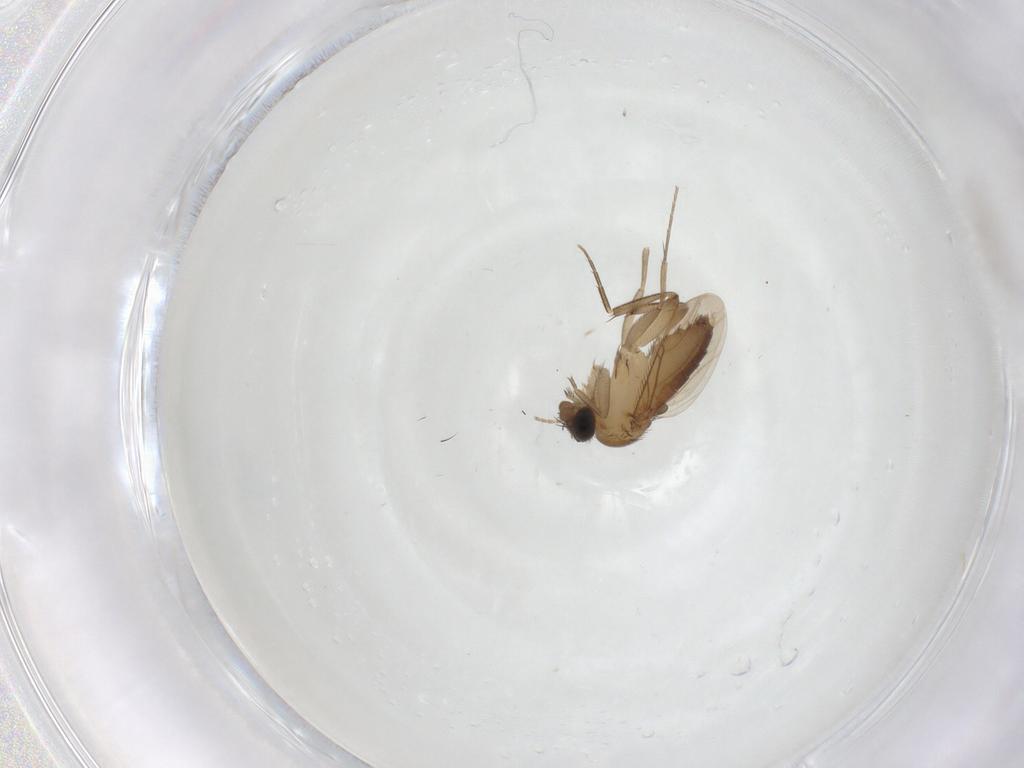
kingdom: Animalia
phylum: Arthropoda
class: Insecta
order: Diptera
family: Phoridae
